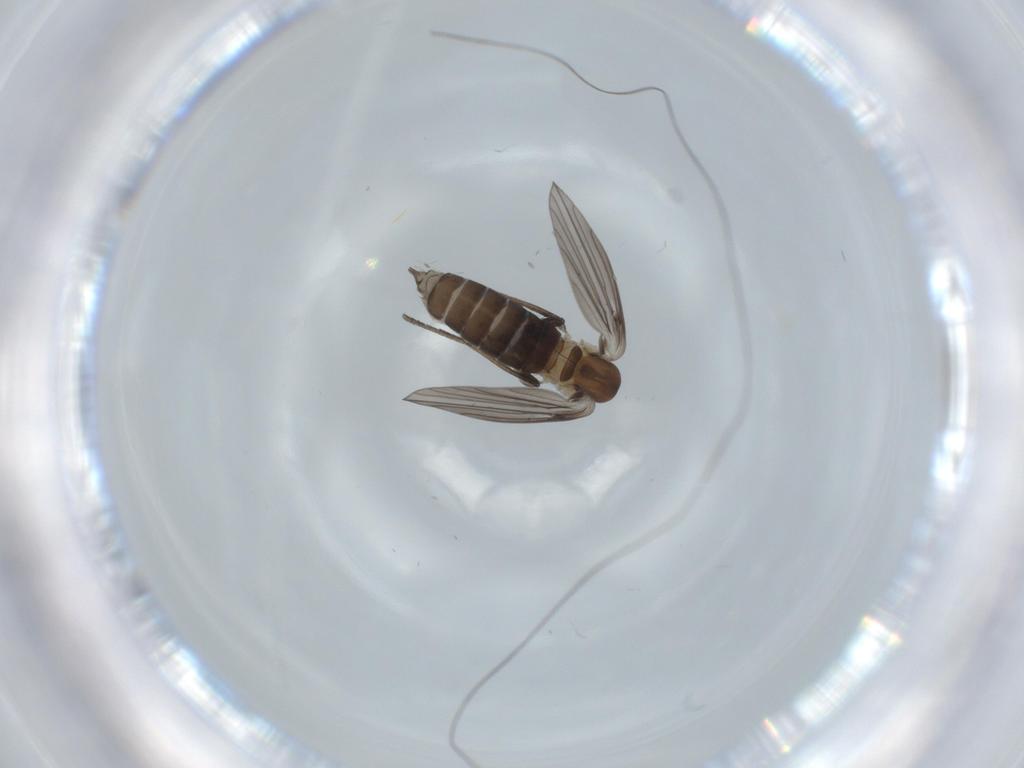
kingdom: Animalia
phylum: Arthropoda
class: Insecta
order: Diptera
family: Psychodidae
